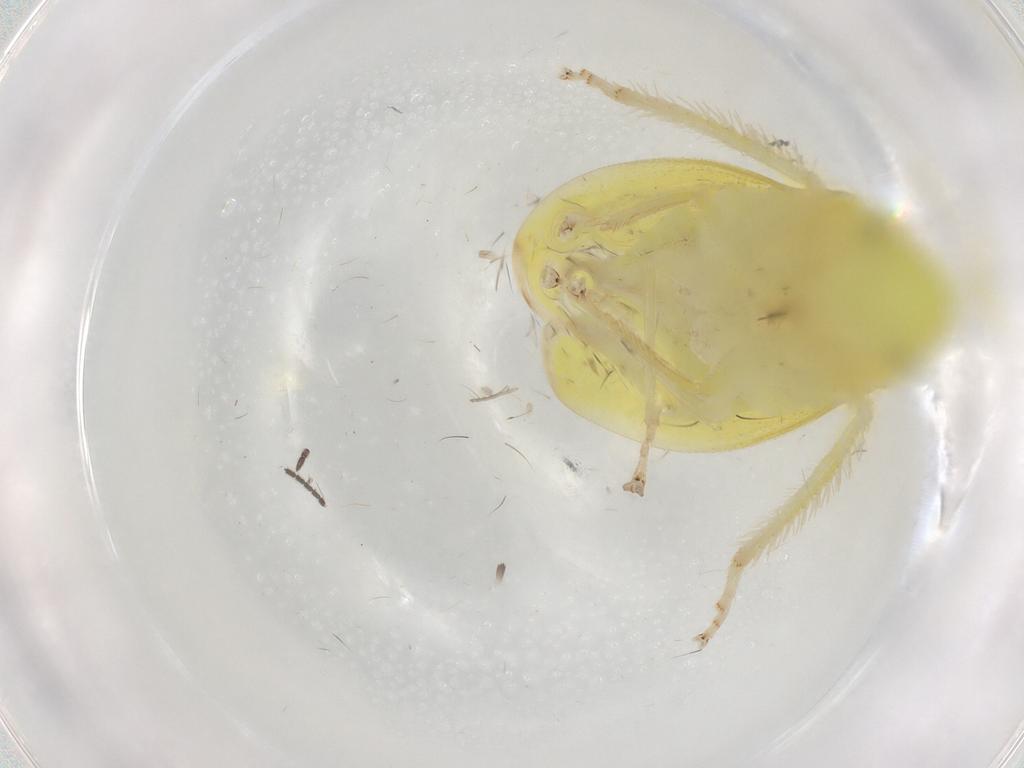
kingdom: Animalia
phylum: Arthropoda
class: Insecta
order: Hemiptera
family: Cicadellidae
